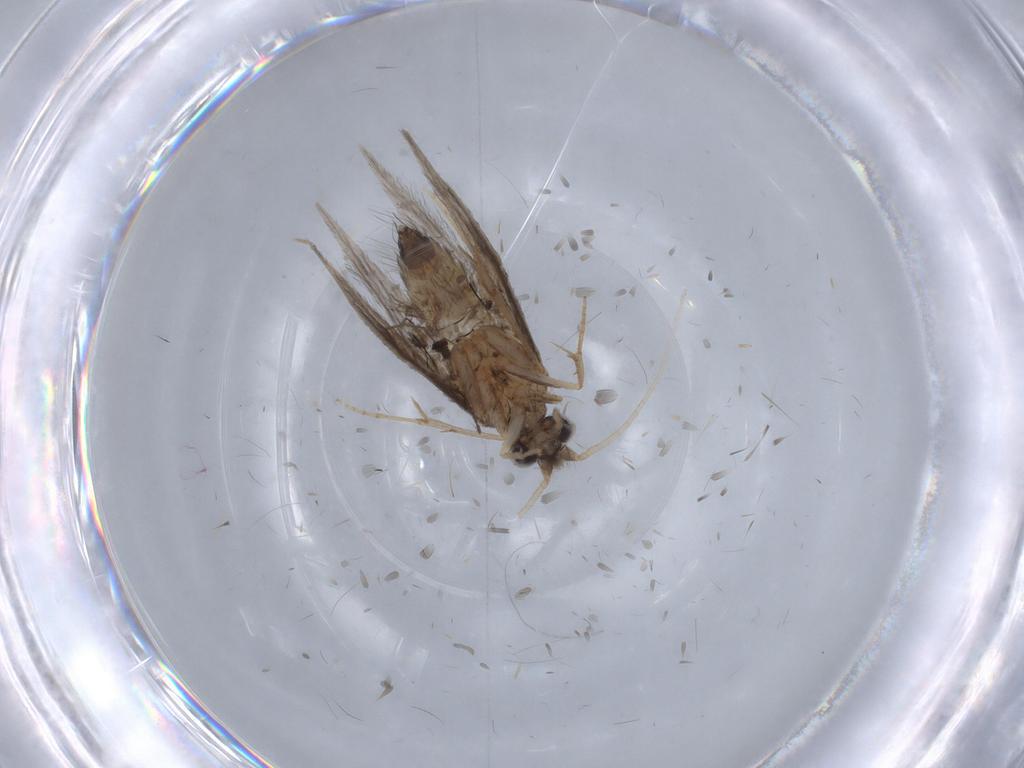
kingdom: Animalia
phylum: Arthropoda
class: Insecta
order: Trichoptera
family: Hydroptilidae
